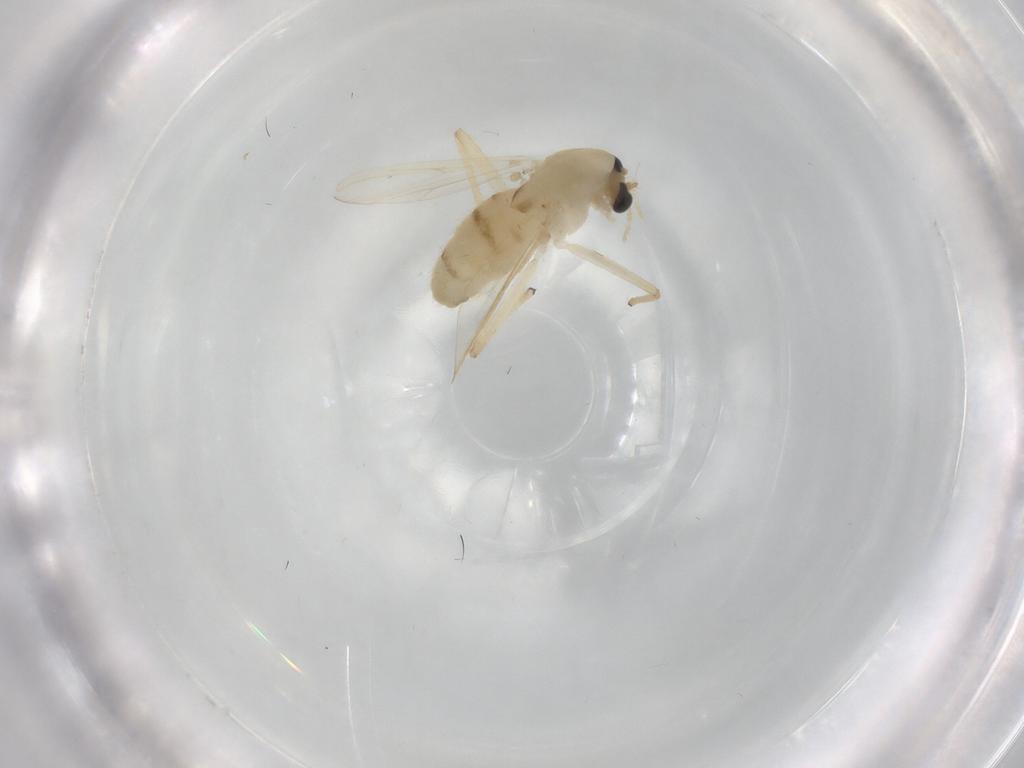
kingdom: Animalia
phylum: Arthropoda
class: Insecta
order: Diptera
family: Chironomidae
